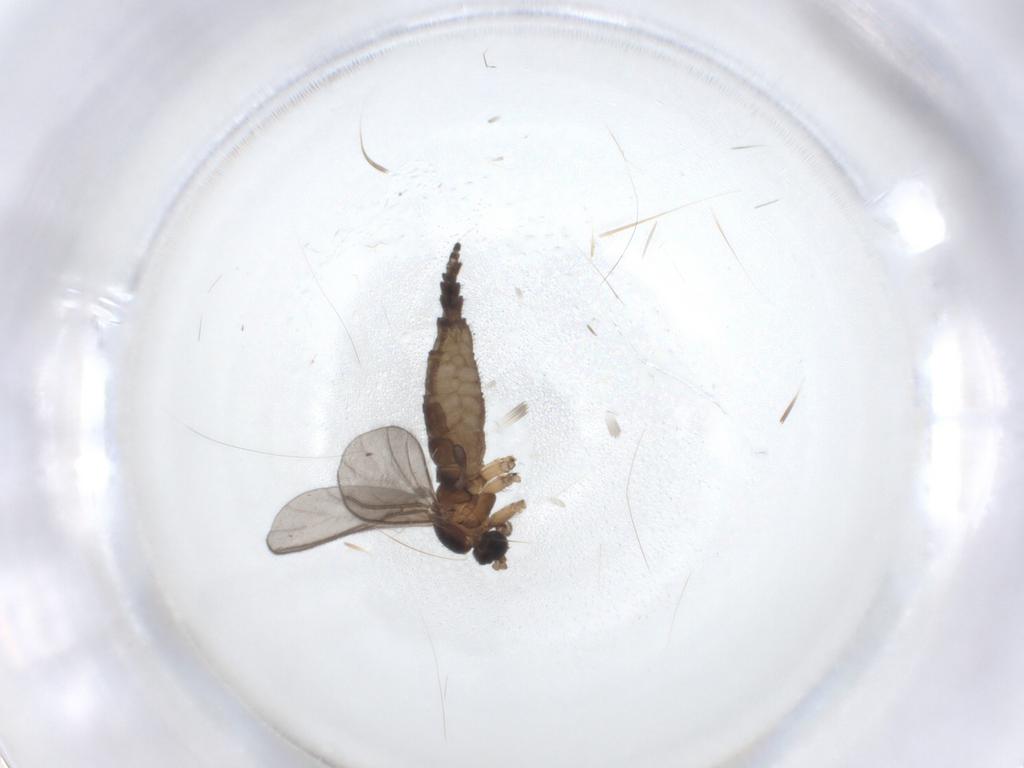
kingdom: Animalia
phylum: Arthropoda
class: Insecta
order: Diptera
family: Sciaridae
